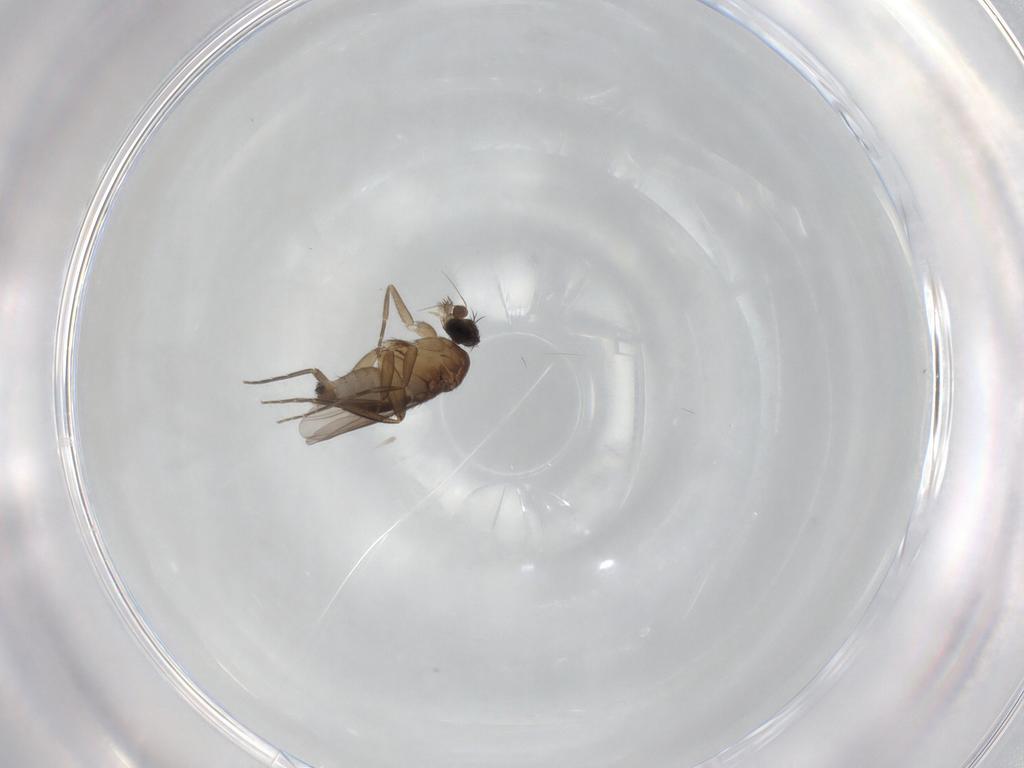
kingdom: Animalia
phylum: Arthropoda
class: Insecta
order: Diptera
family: Phoridae
